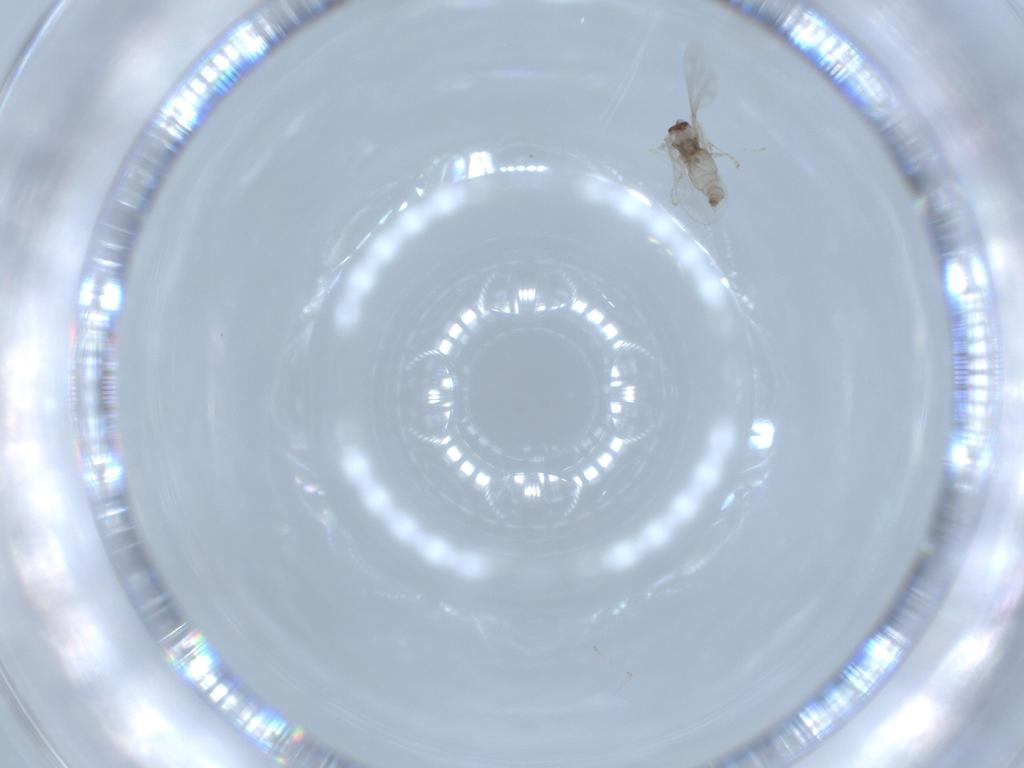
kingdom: Animalia
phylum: Arthropoda
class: Insecta
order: Diptera
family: Cecidomyiidae
